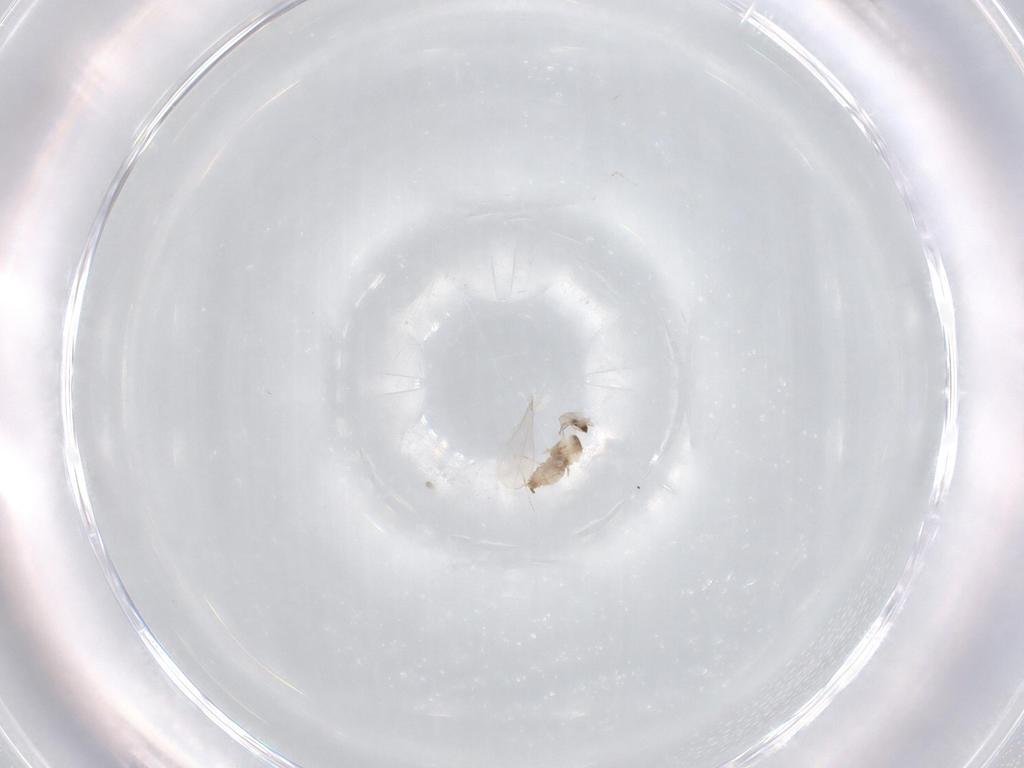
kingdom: Animalia
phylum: Arthropoda
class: Insecta
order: Diptera
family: Cecidomyiidae
